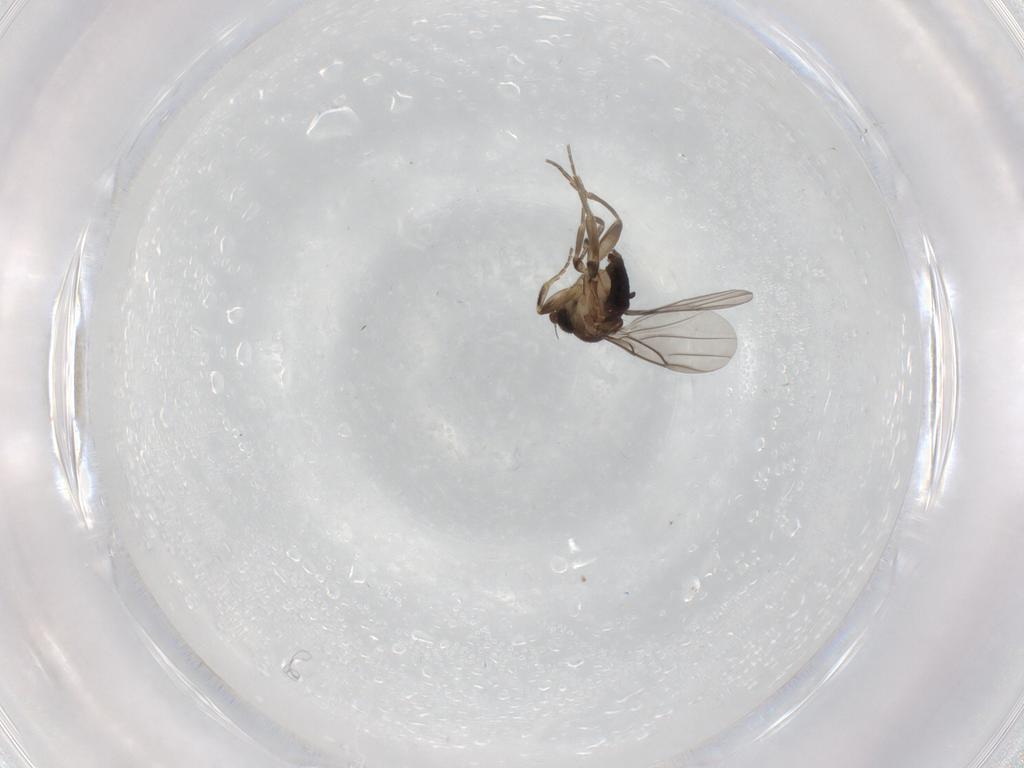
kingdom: Animalia
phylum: Arthropoda
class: Insecta
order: Diptera
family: Phoridae
